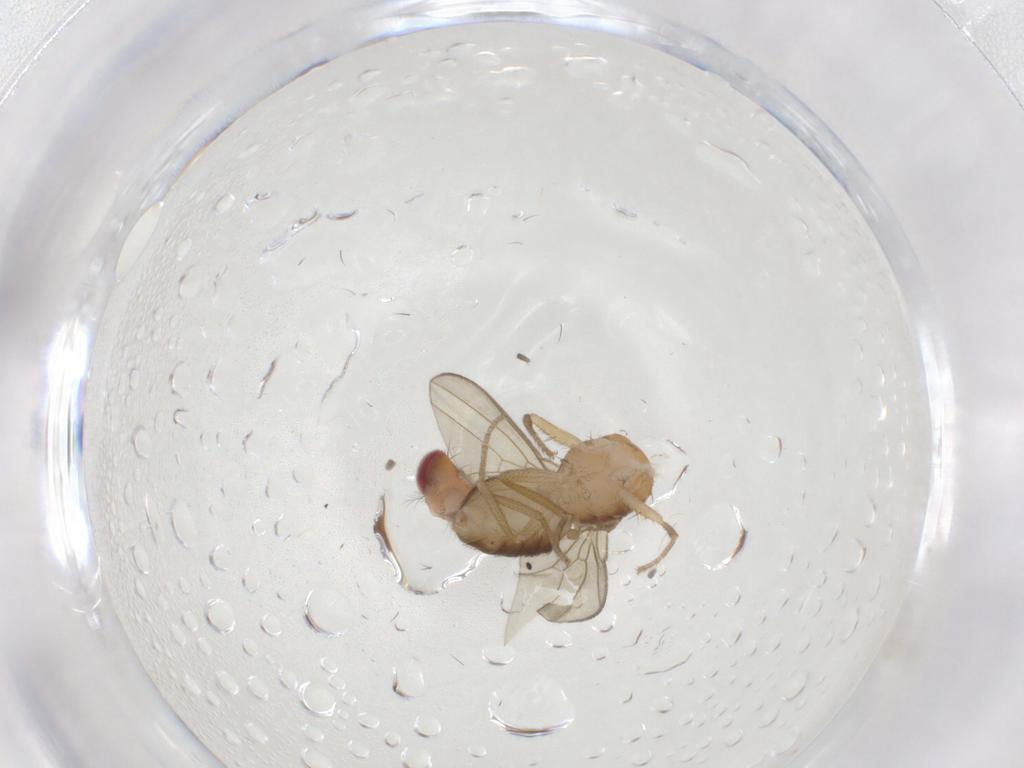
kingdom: Animalia
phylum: Arthropoda
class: Insecta
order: Diptera
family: Drosophilidae
